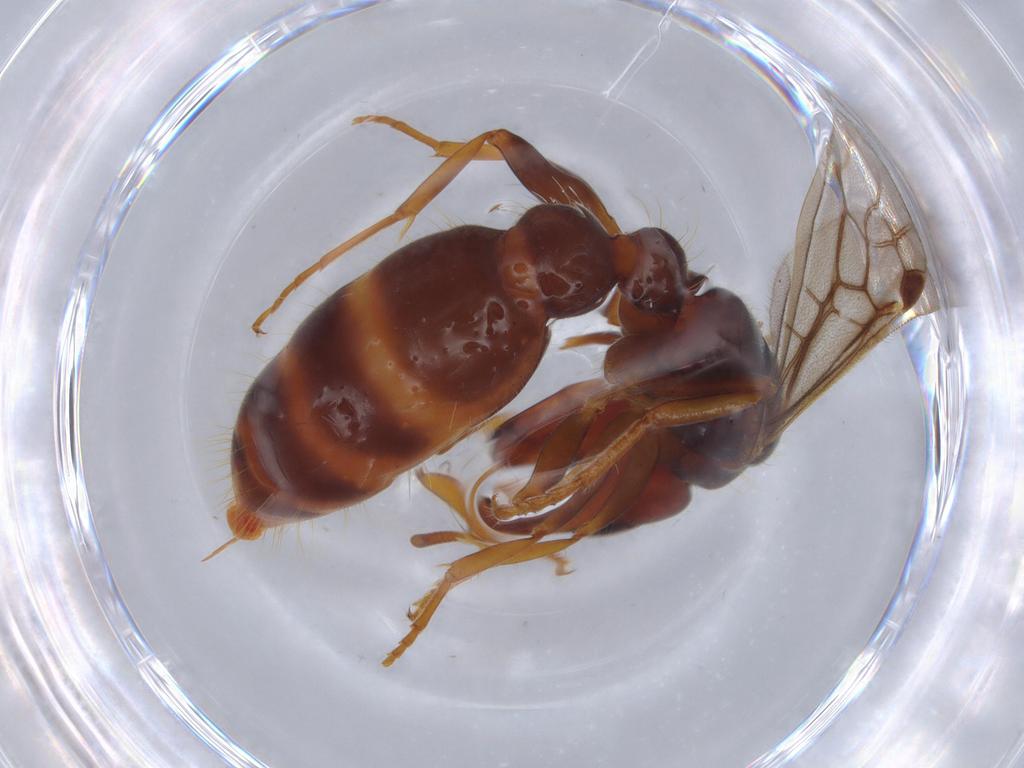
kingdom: Animalia
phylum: Arthropoda
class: Insecta
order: Hymenoptera
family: Formicidae
